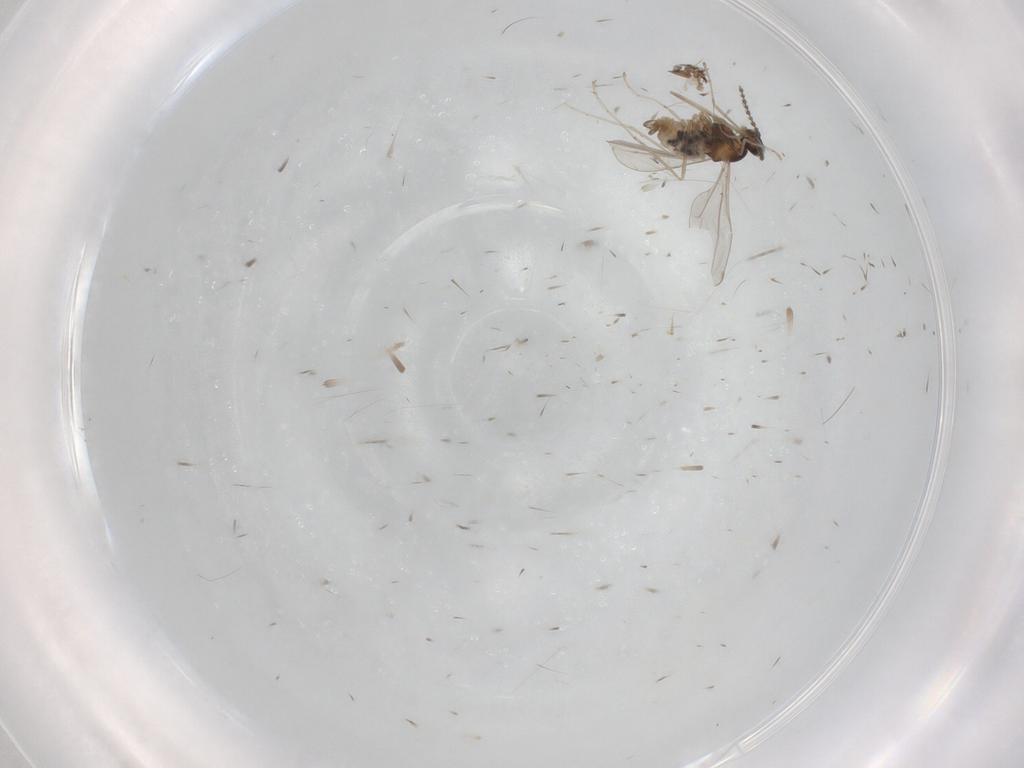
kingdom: Animalia
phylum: Arthropoda
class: Insecta
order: Diptera
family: Cecidomyiidae
